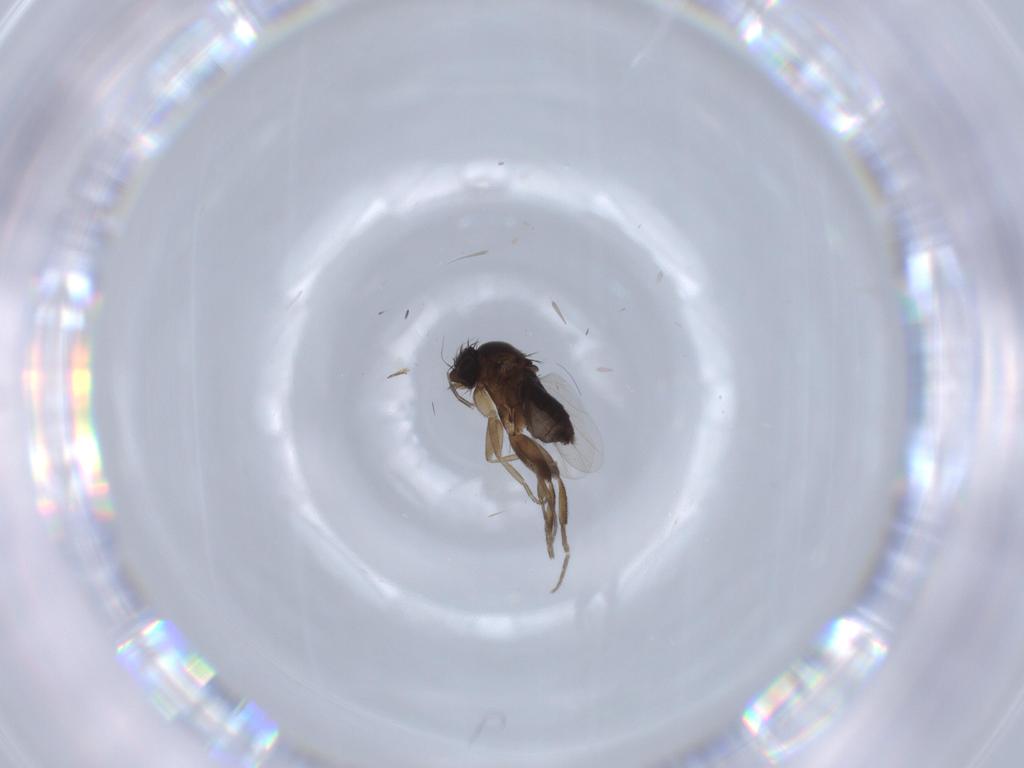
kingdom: Animalia
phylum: Arthropoda
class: Insecta
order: Diptera
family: Phoridae
